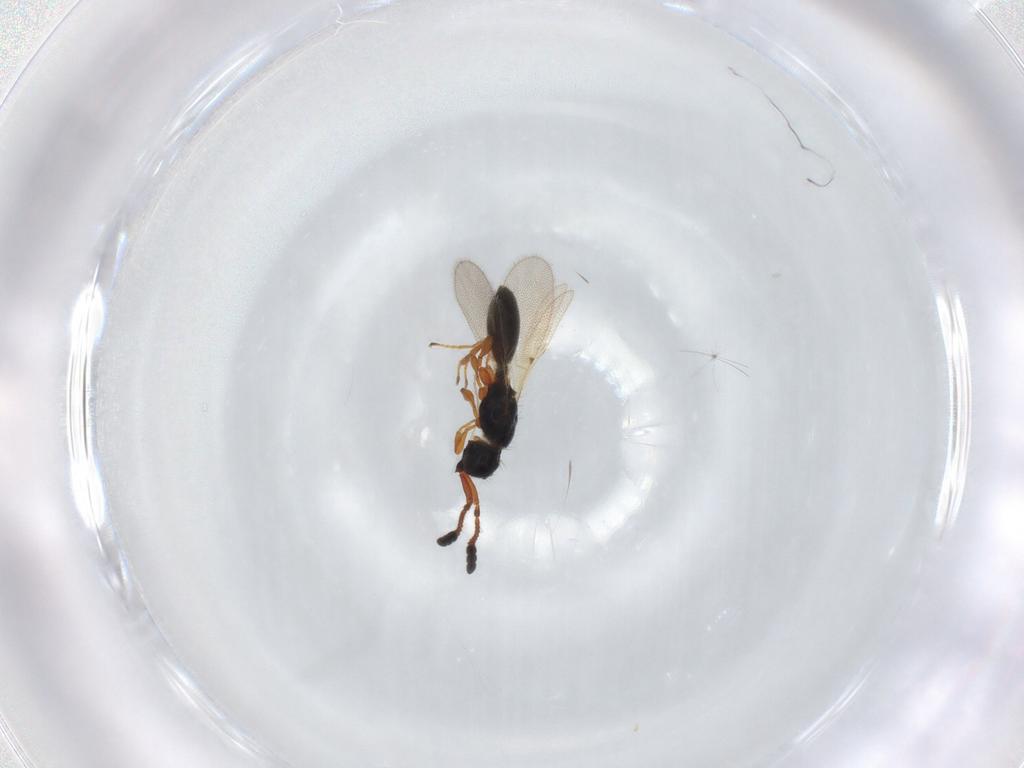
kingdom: Animalia
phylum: Arthropoda
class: Insecta
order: Hymenoptera
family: Diapriidae
